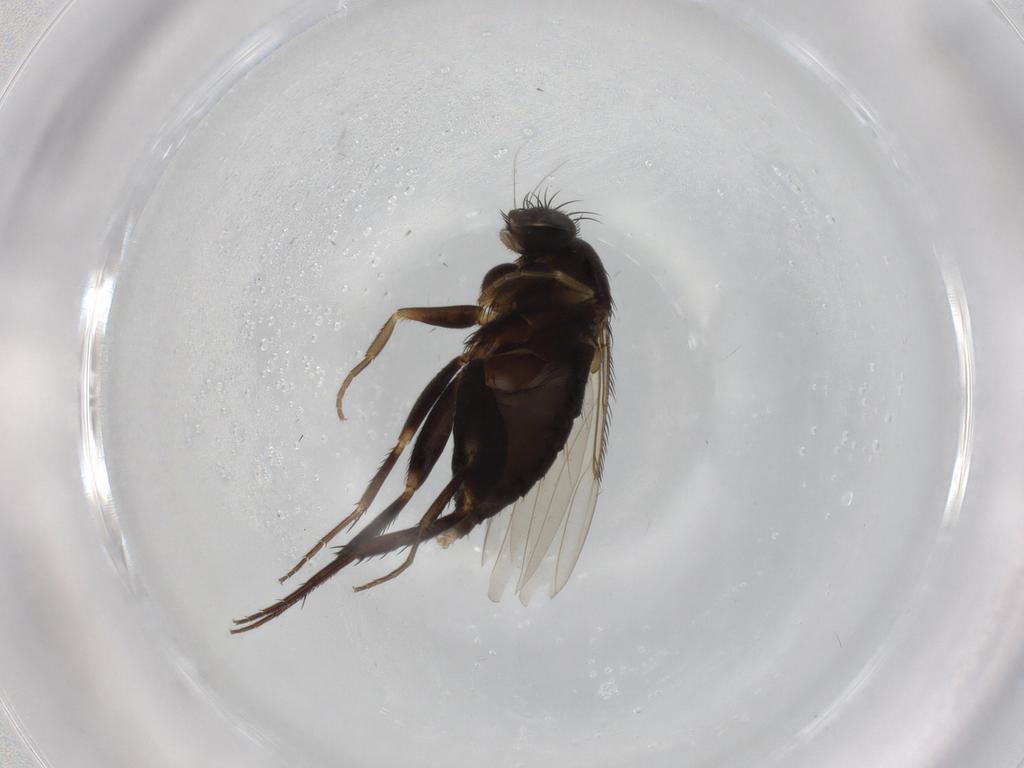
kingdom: Animalia
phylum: Arthropoda
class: Insecta
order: Diptera
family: Phoridae
